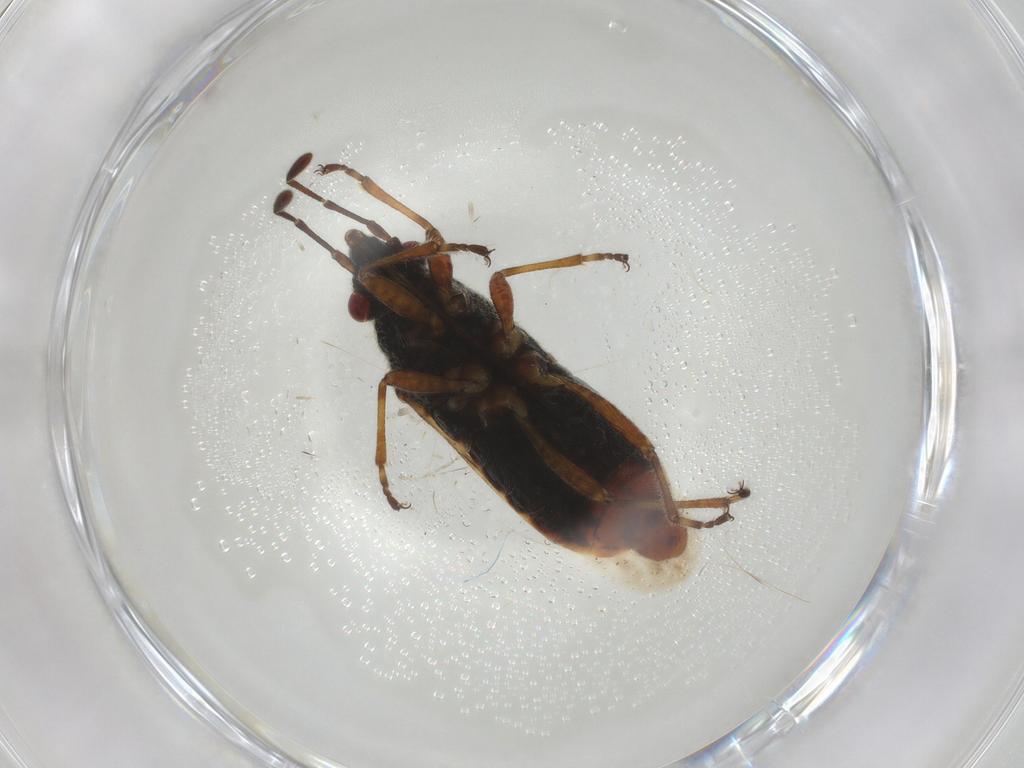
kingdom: Animalia
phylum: Arthropoda
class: Insecta
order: Hemiptera
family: Lygaeidae
